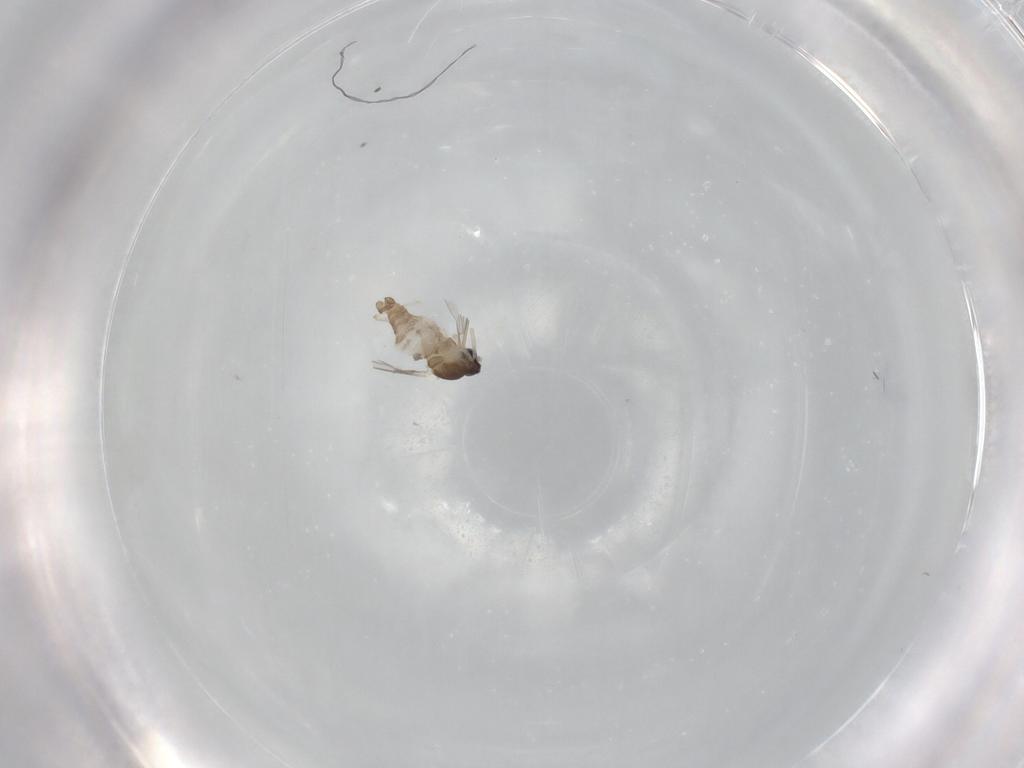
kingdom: Animalia
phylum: Arthropoda
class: Insecta
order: Diptera
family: Cecidomyiidae
